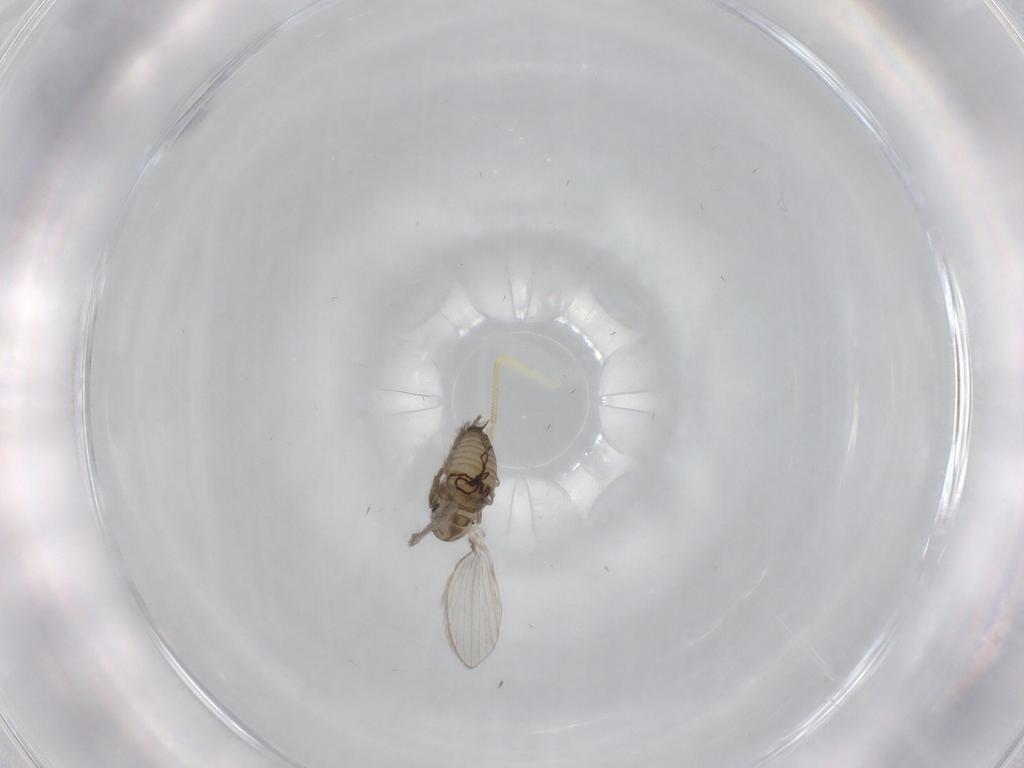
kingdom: Animalia
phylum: Arthropoda
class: Insecta
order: Diptera
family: Psychodidae
